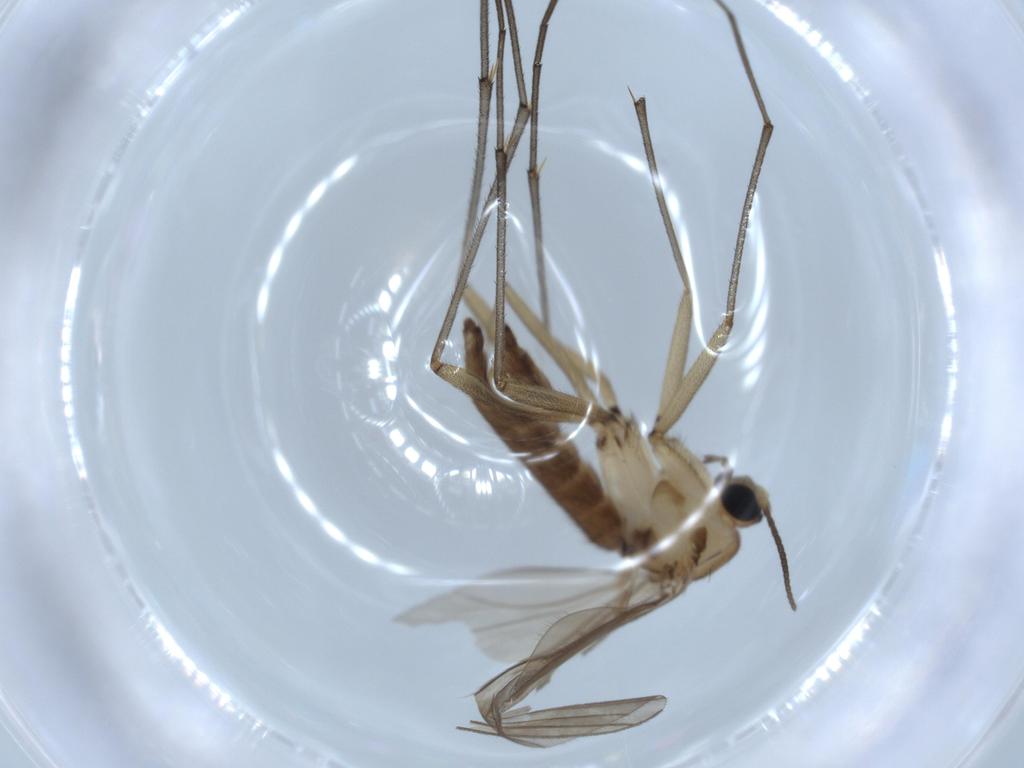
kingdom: Animalia
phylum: Arthropoda
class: Insecta
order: Diptera
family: Sciaridae
